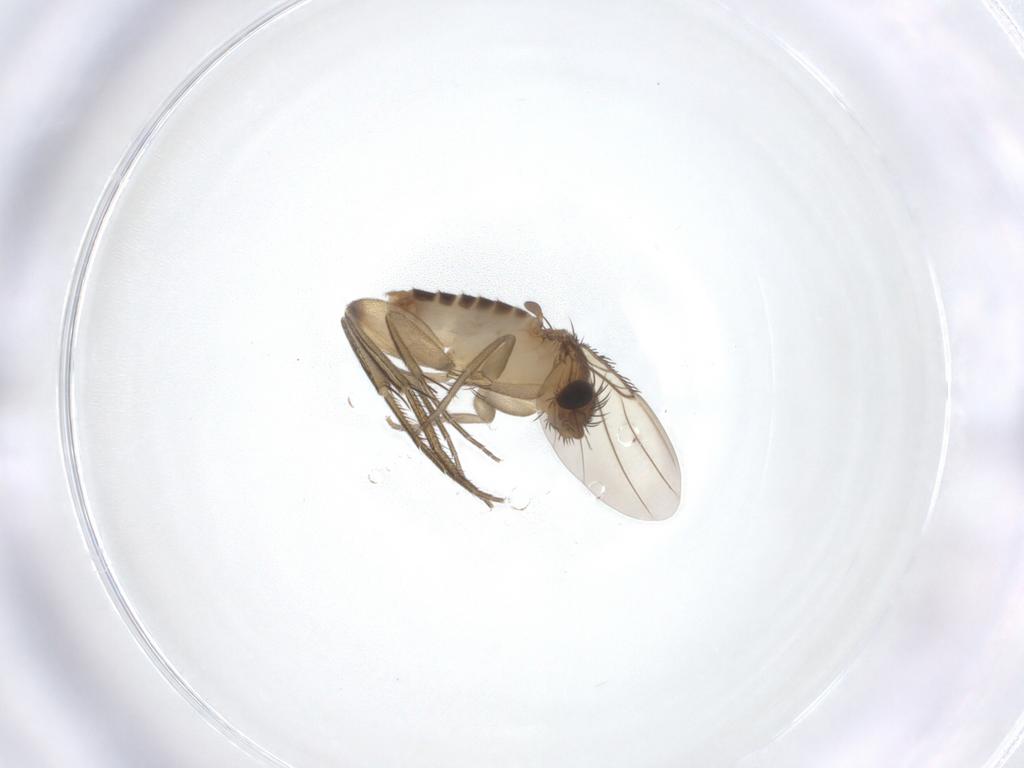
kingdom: Animalia
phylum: Arthropoda
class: Insecta
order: Diptera
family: Phoridae
